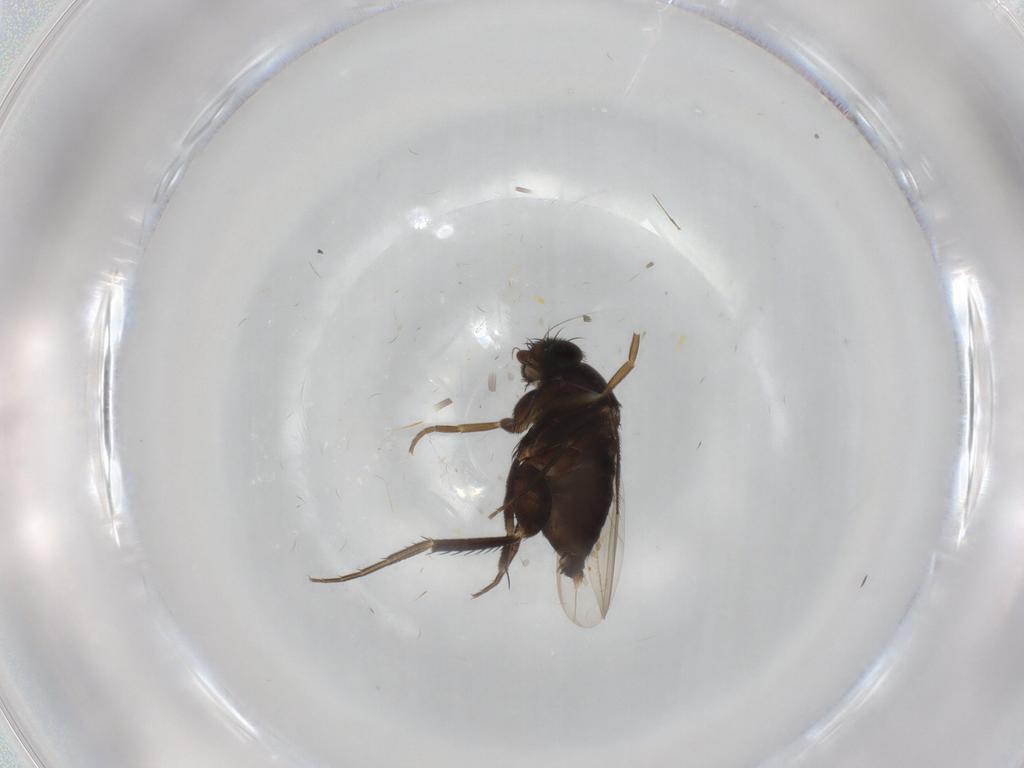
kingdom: Animalia
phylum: Arthropoda
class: Insecta
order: Diptera
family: Phoridae
